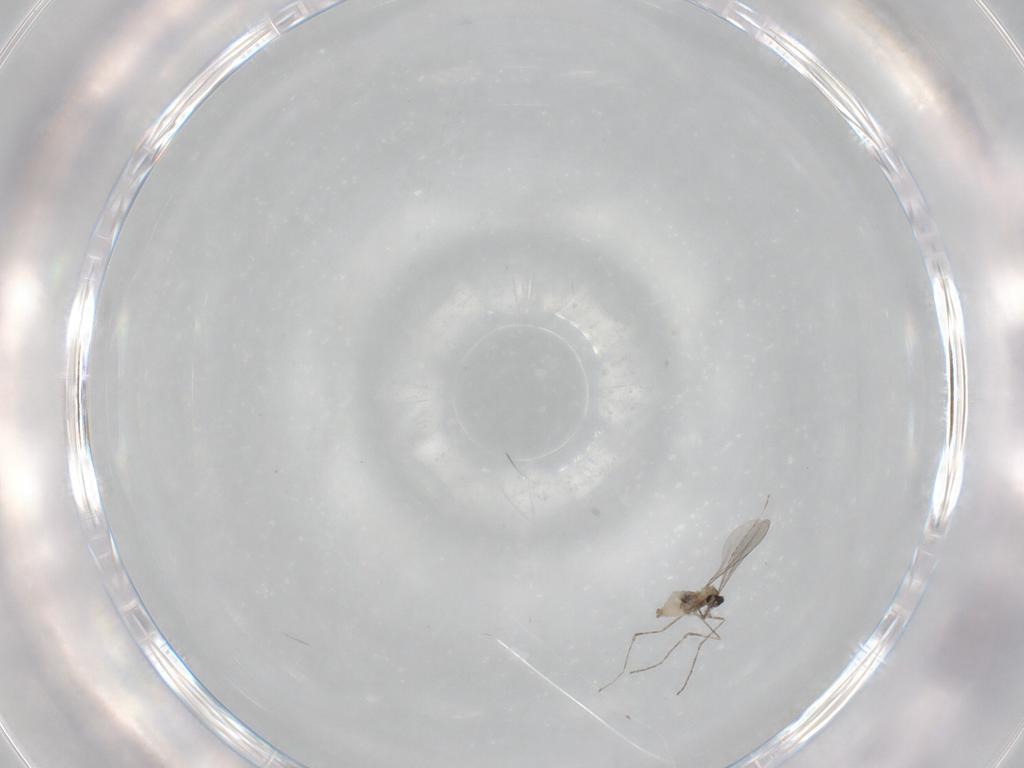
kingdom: Animalia
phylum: Arthropoda
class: Insecta
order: Diptera
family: Cecidomyiidae
